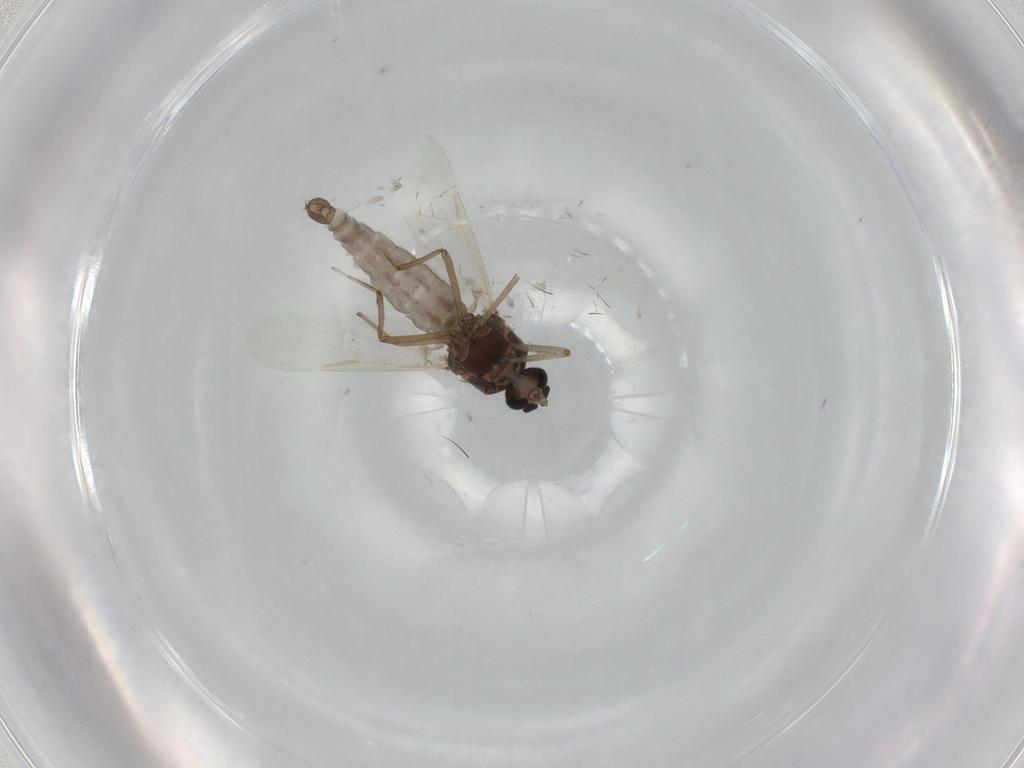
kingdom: Animalia
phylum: Arthropoda
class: Insecta
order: Diptera
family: Ceratopogonidae
